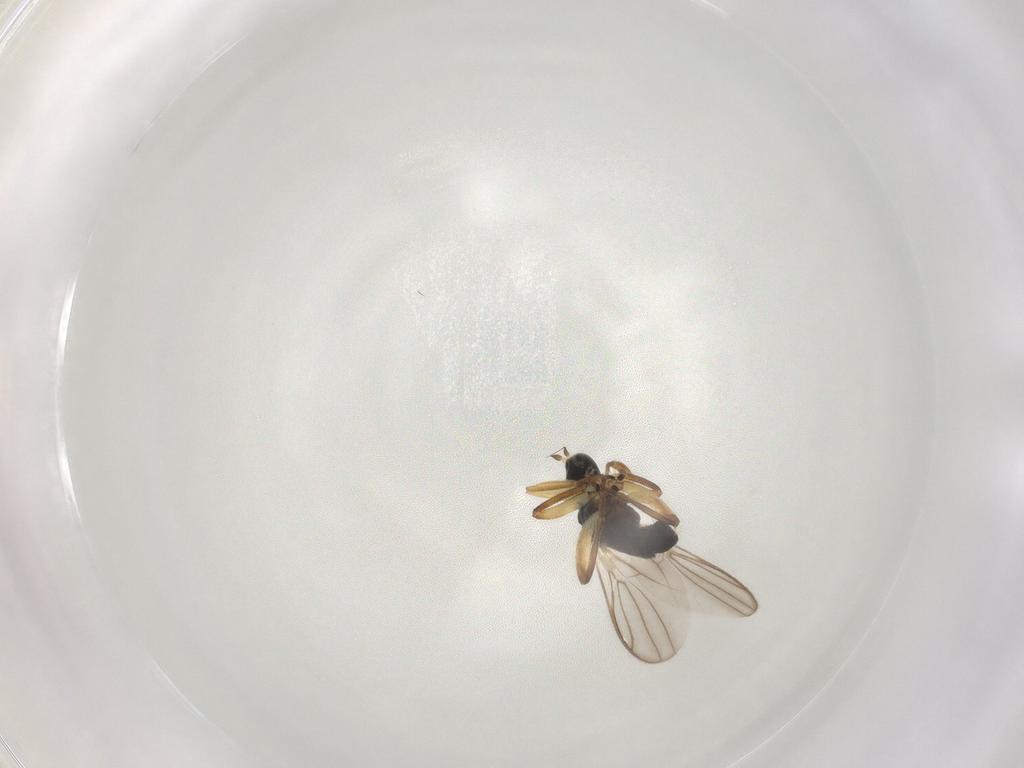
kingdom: Animalia
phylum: Arthropoda
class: Insecta
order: Diptera
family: Hybotidae
